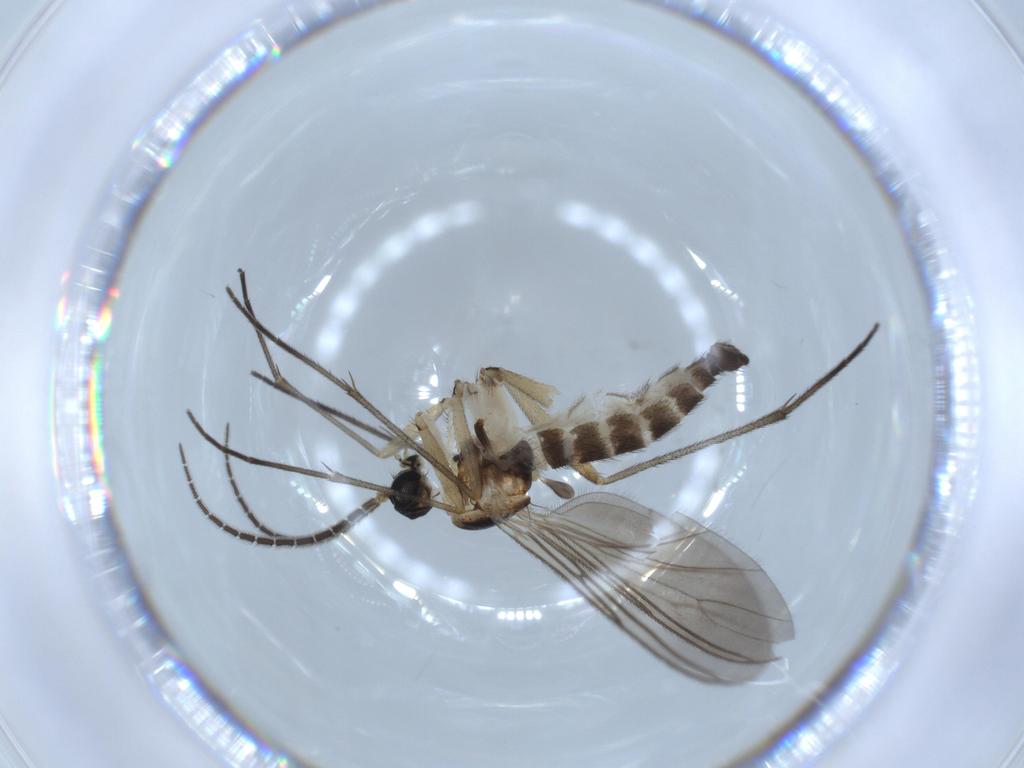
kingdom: Animalia
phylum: Arthropoda
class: Insecta
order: Diptera
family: Sciaridae
